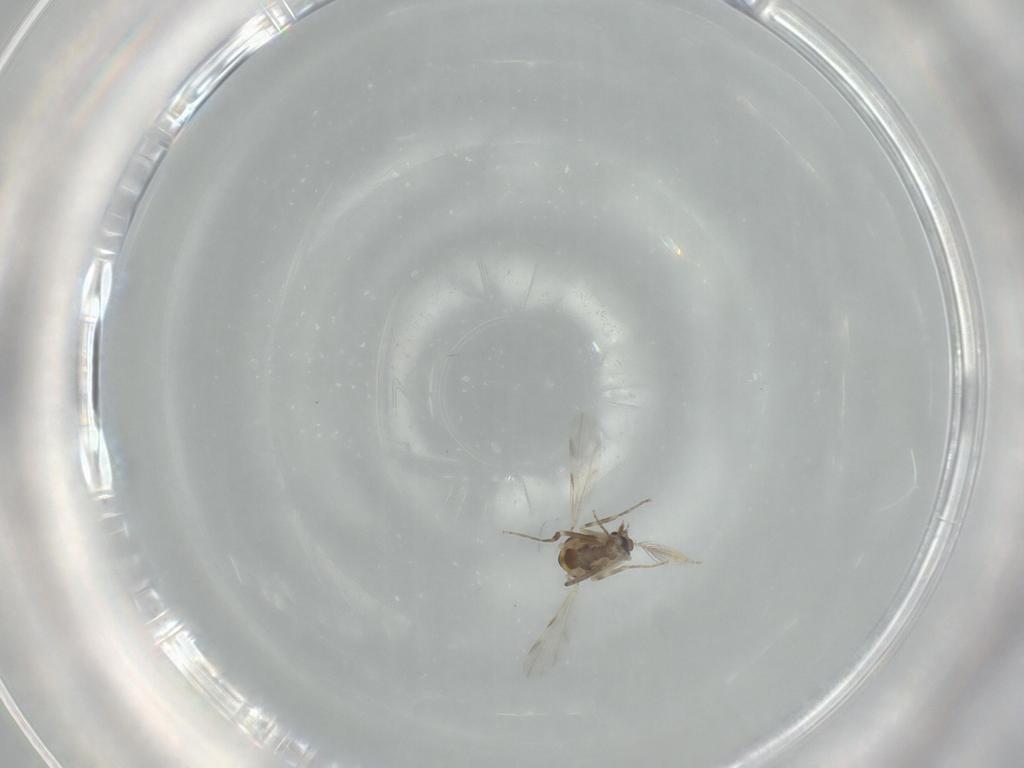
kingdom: Animalia
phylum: Arthropoda
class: Insecta
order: Diptera
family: Ceratopogonidae
